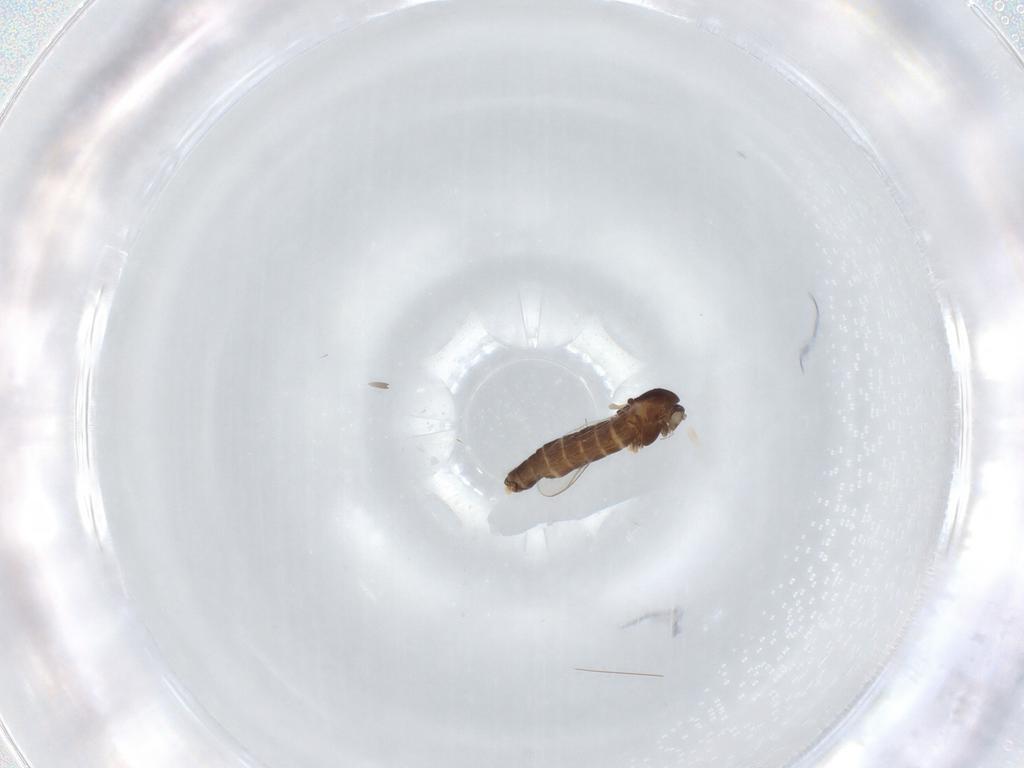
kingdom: Animalia
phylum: Arthropoda
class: Insecta
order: Diptera
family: Chironomidae
